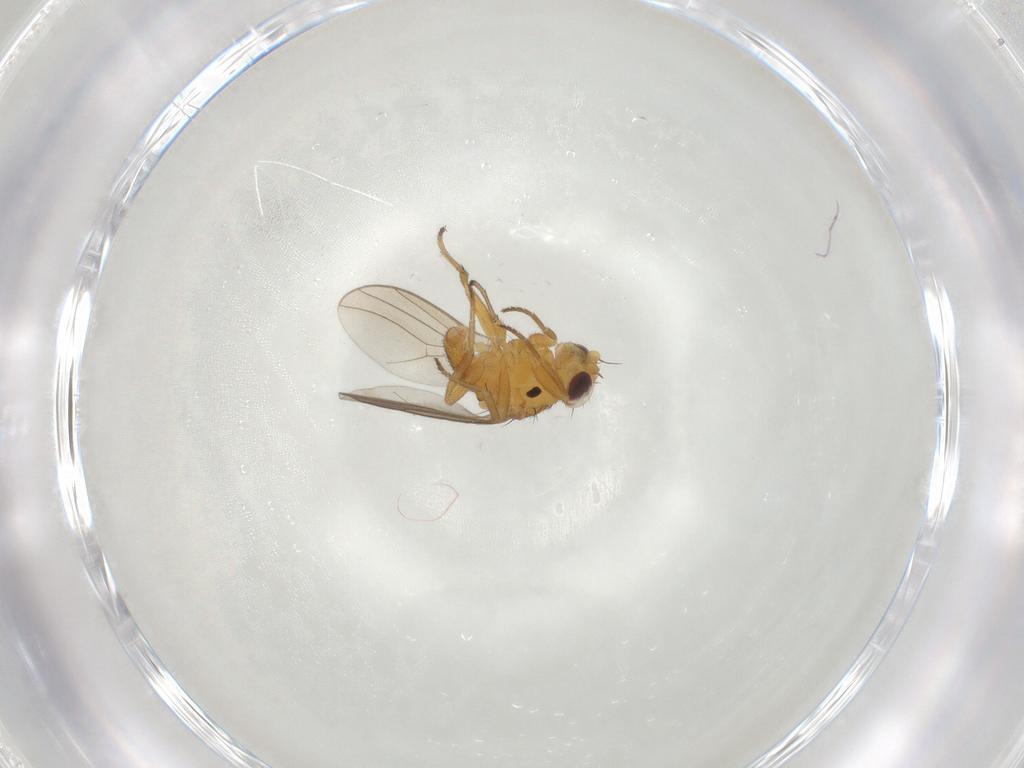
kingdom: Animalia
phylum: Arthropoda
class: Insecta
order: Diptera
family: Chloropidae
